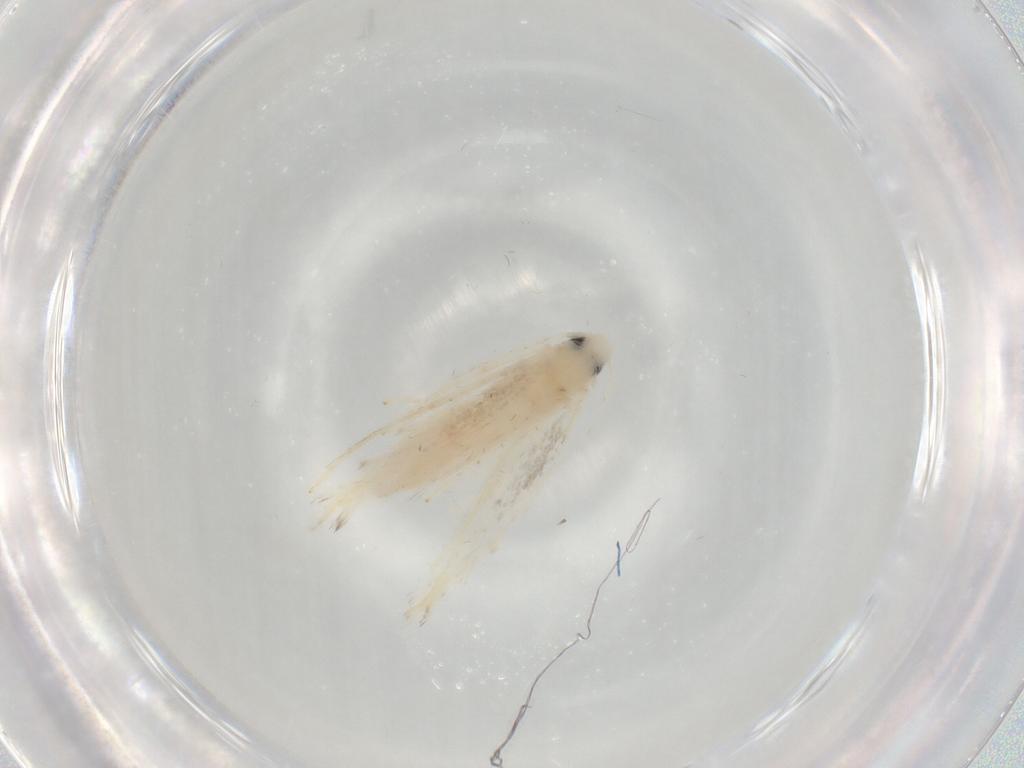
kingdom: Animalia
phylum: Arthropoda
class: Insecta
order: Lepidoptera
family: Gracillariidae
